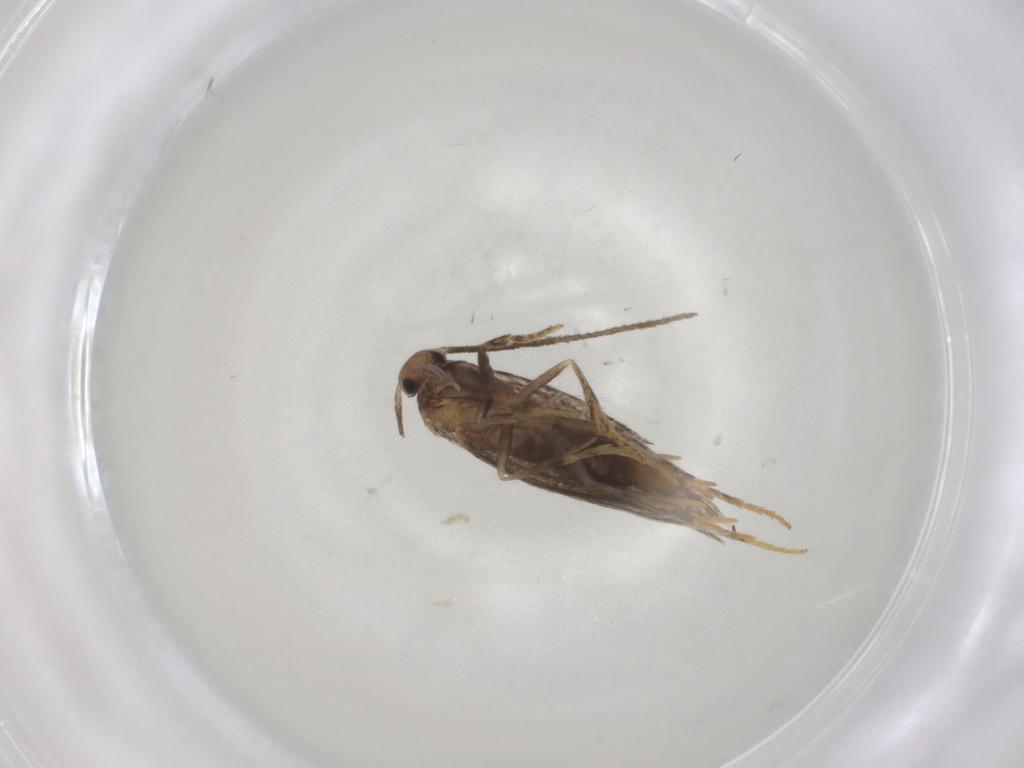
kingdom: Animalia
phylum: Arthropoda
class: Insecta
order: Lepidoptera
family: Elachistidae
